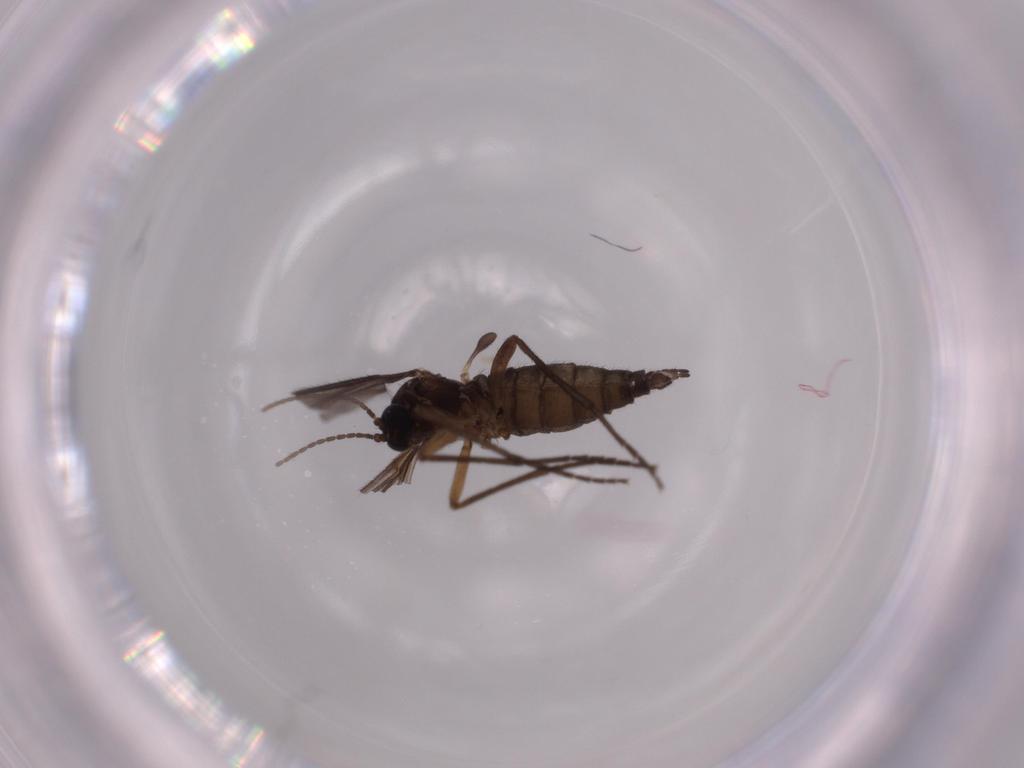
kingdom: Animalia
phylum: Arthropoda
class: Insecta
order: Diptera
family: Sciaridae
